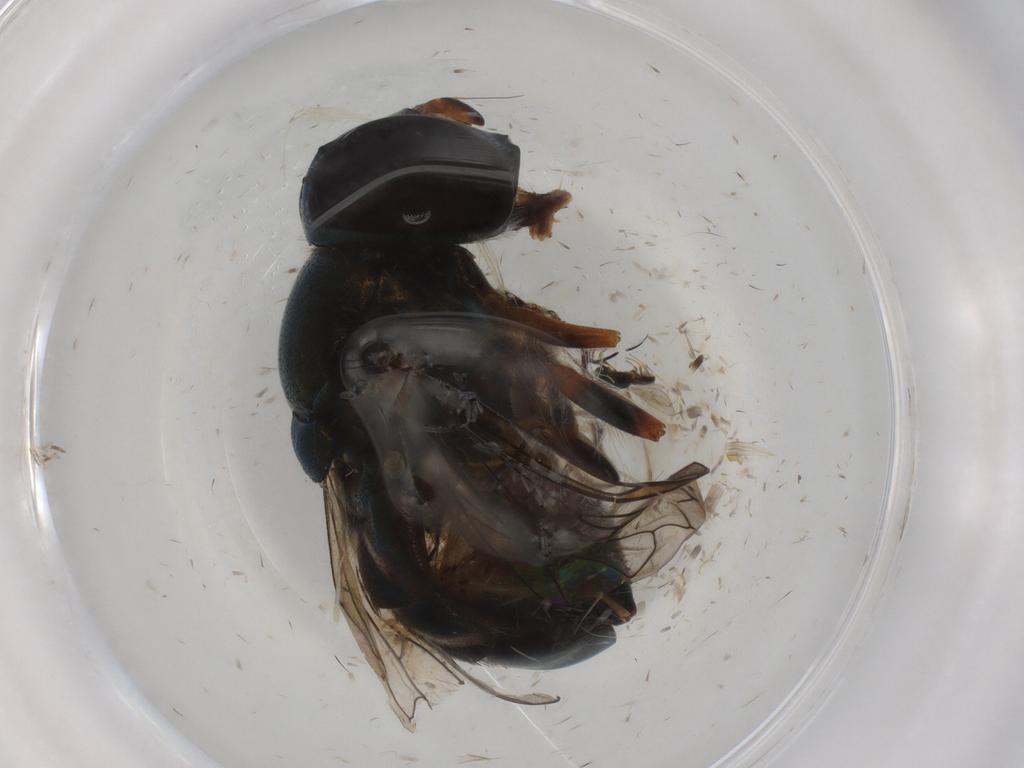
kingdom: Animalia
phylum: Arthropoda
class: Insecta
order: Diptera
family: Syrphidae
